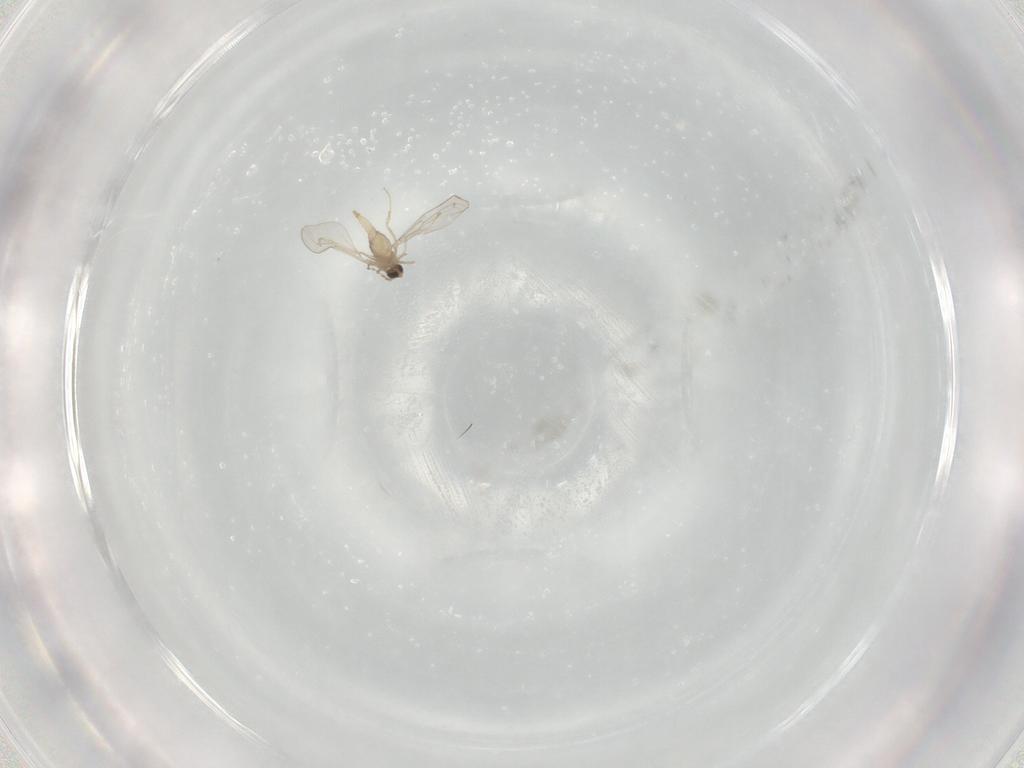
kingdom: Animalia
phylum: Arthropoda
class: Insecta
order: Diptera
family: Cecidomyiidae
